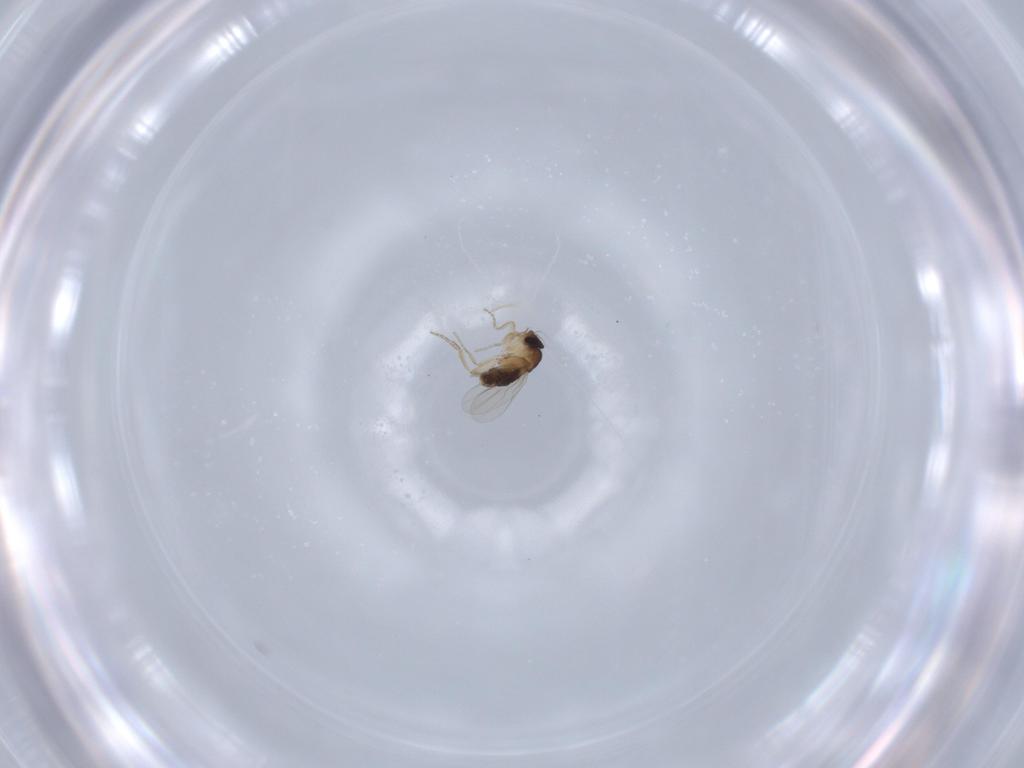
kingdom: Animalia
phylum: Arthropoda
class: Insecta
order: Diptera
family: Phoridae
